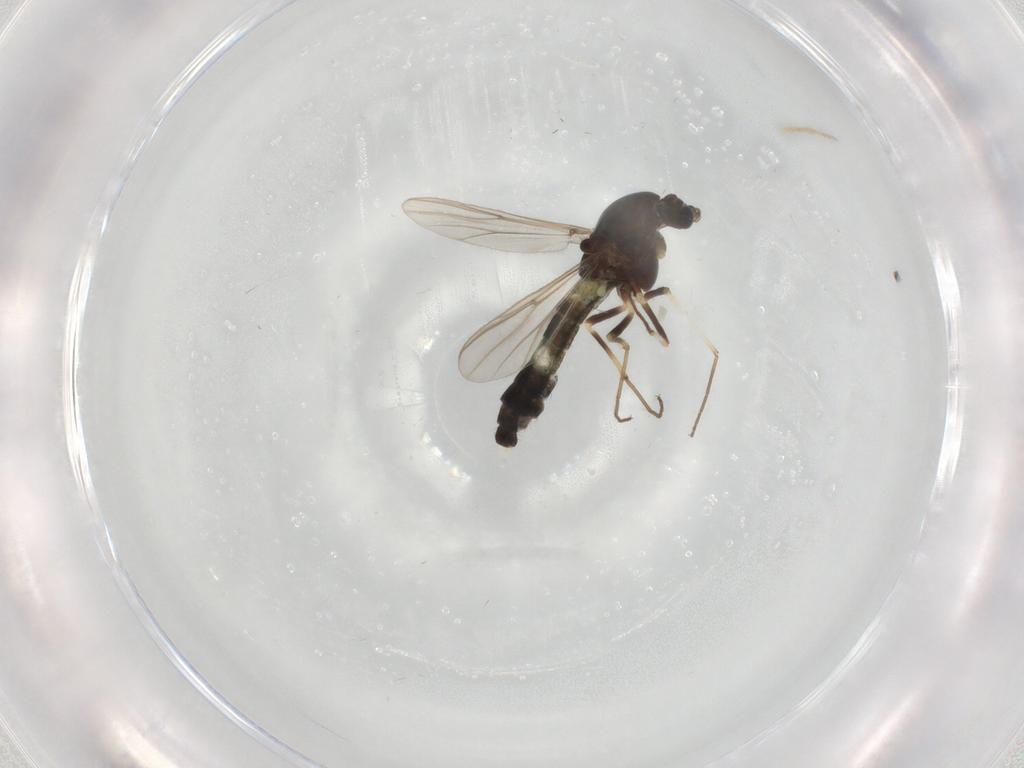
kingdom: Animalia
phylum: Arthropoda
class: Insecta
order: Diptera
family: Chironomidae
